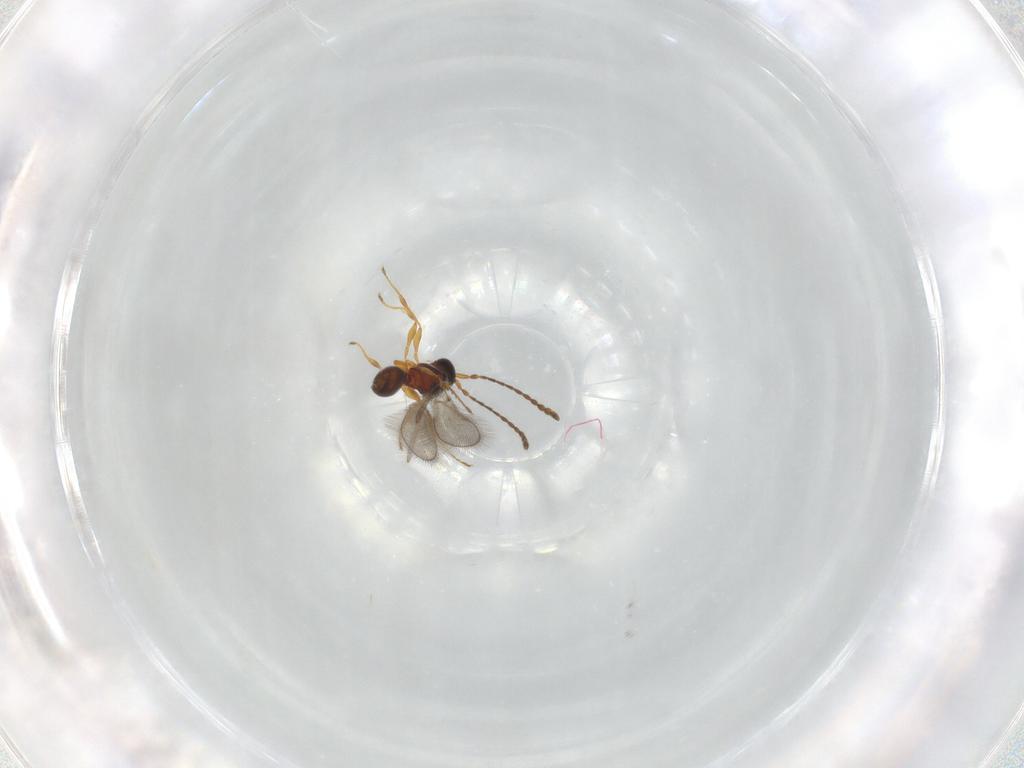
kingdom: Animalia
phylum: Arthropoda
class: Insecta
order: Hymenoptera
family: Diapriidae
